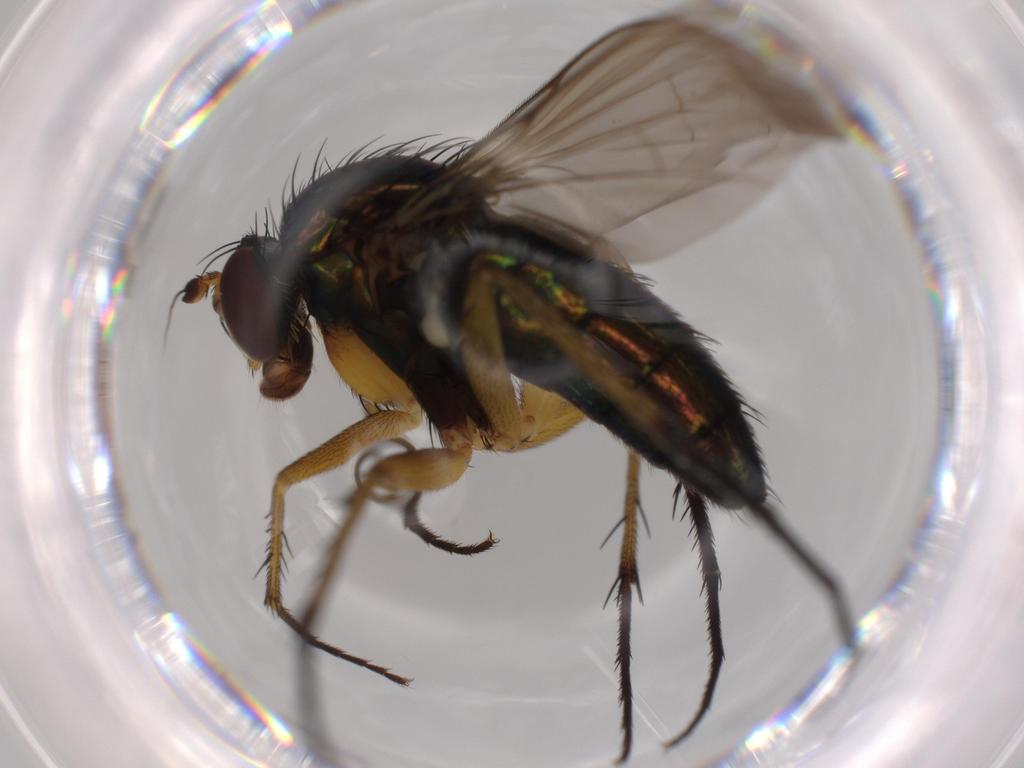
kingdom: Animalia
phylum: Arthropoda
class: Insecta
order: Diptera
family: Dolichopodidae
